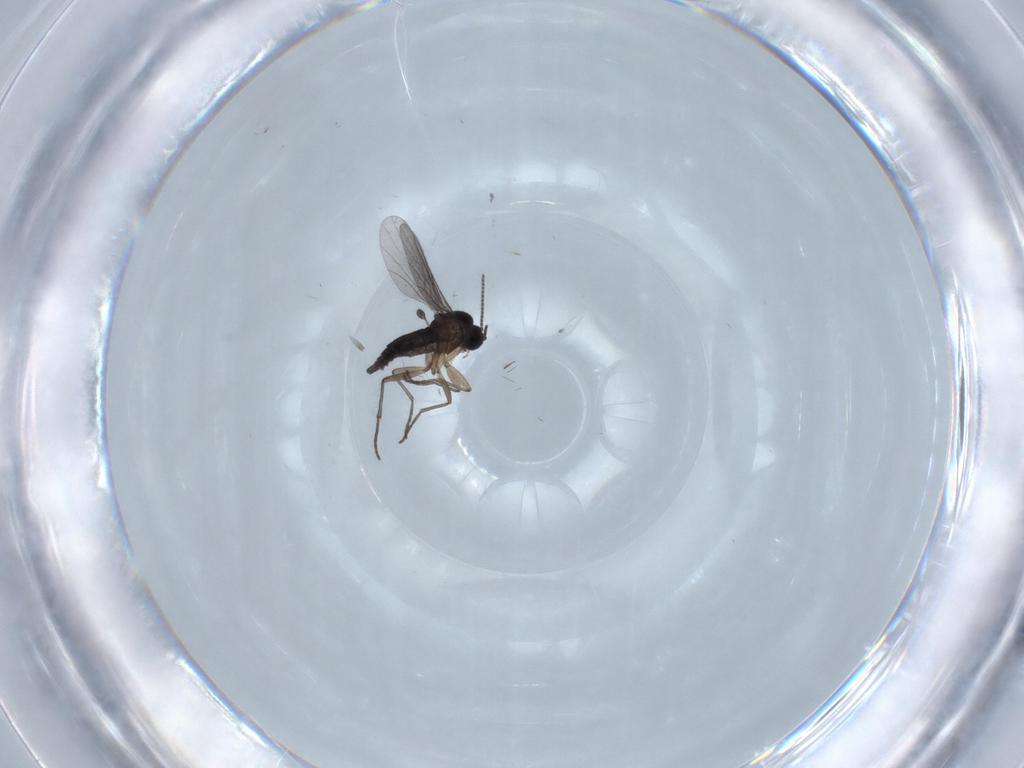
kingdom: Animalia
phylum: Arthropoda
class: Insecta
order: Diptera
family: Sciaridae
